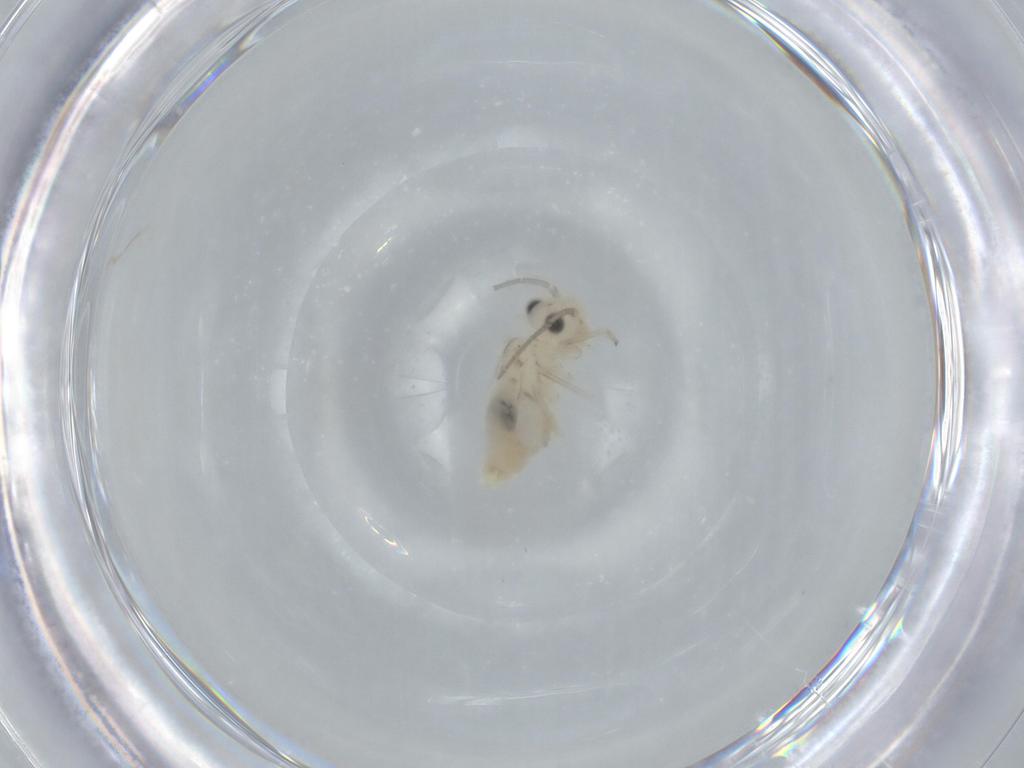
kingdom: Animalia
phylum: Arthropoda
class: Insecta
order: Psocodea
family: Caeciliusidae
